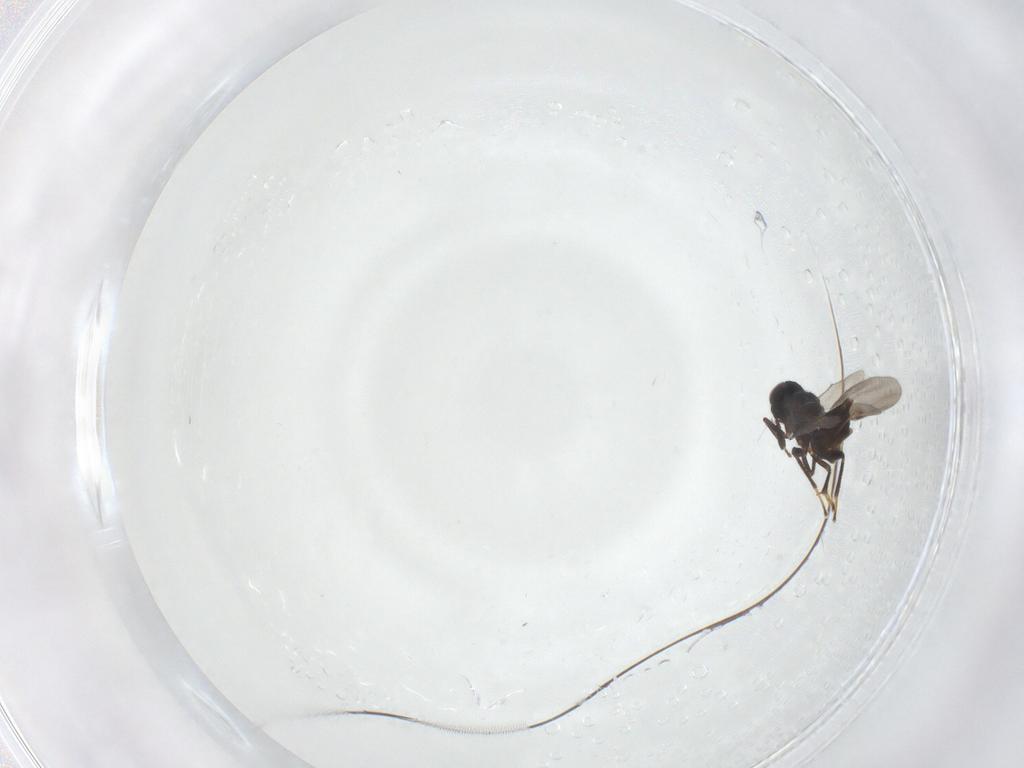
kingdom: Animalia
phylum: Arthropoda
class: Insecta
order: Hymenoptera
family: Encyrtidae
